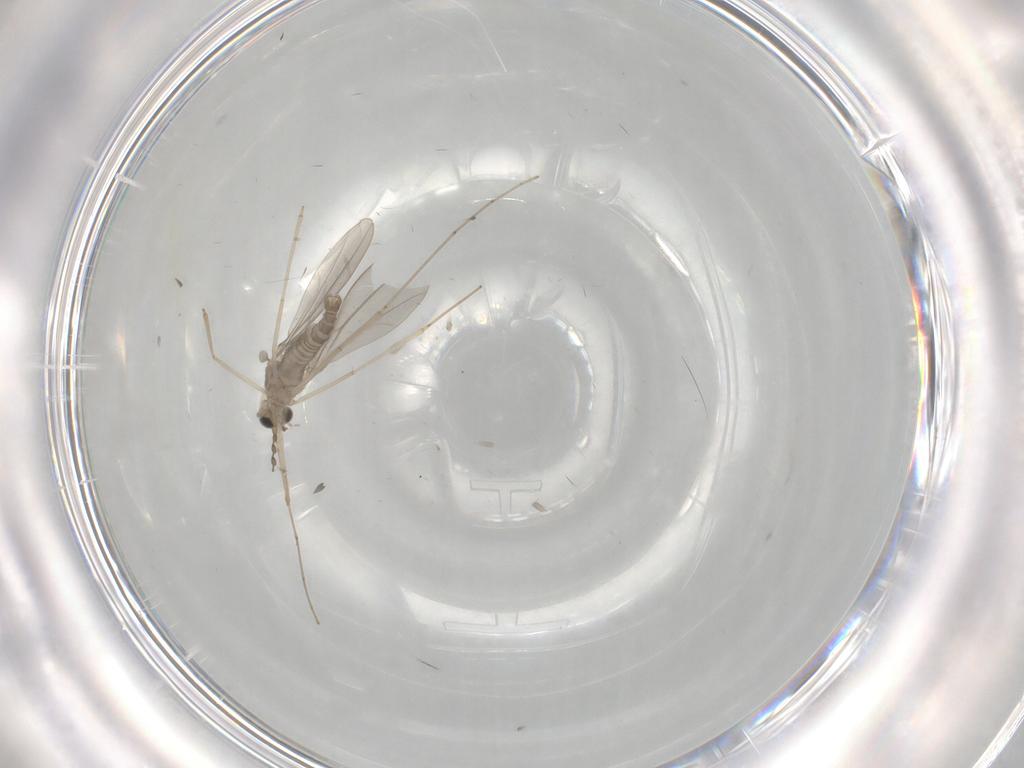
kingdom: Animalia
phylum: Arthropoda
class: Insecta
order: Diptera
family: Sciaridae
